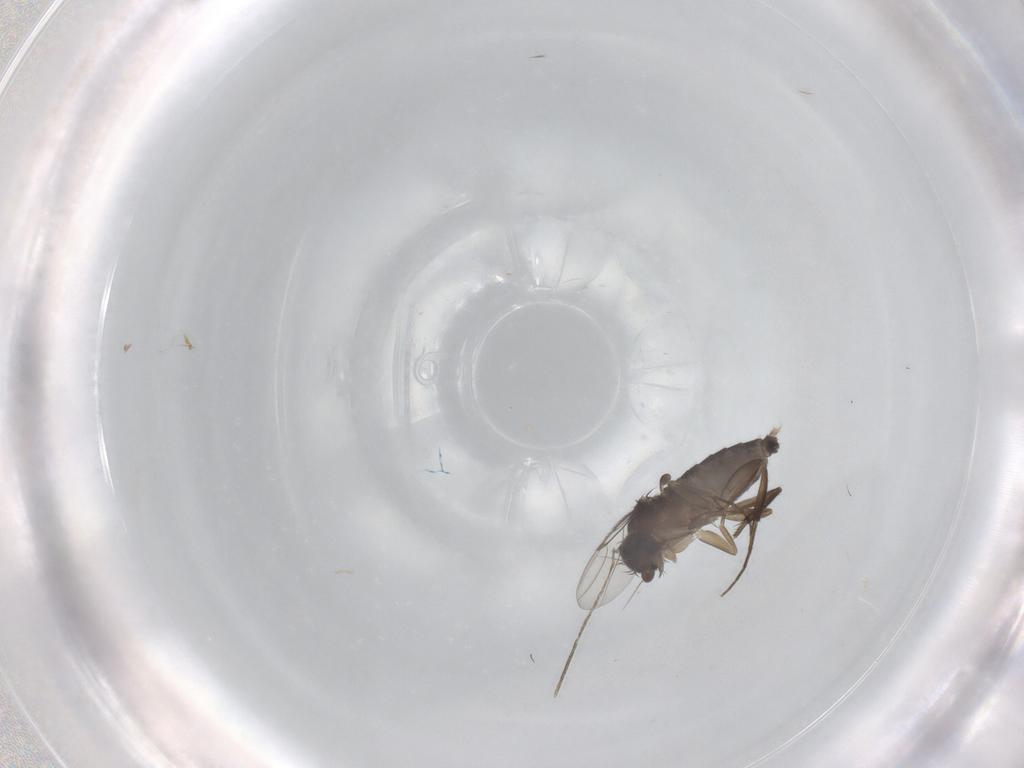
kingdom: Animalia
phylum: Arthropoda
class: Insecta
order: Diptera
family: Phoridae
